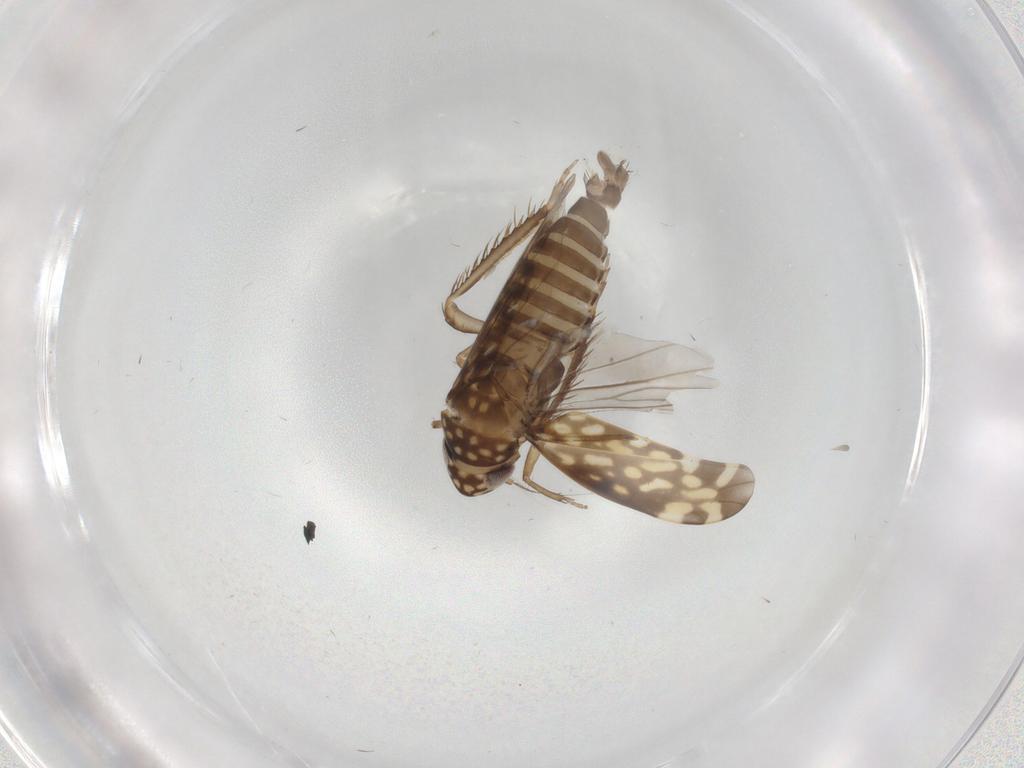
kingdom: Animalia
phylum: Arthropoda
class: Insecta
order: Hemiptera
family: Cicadellidae
